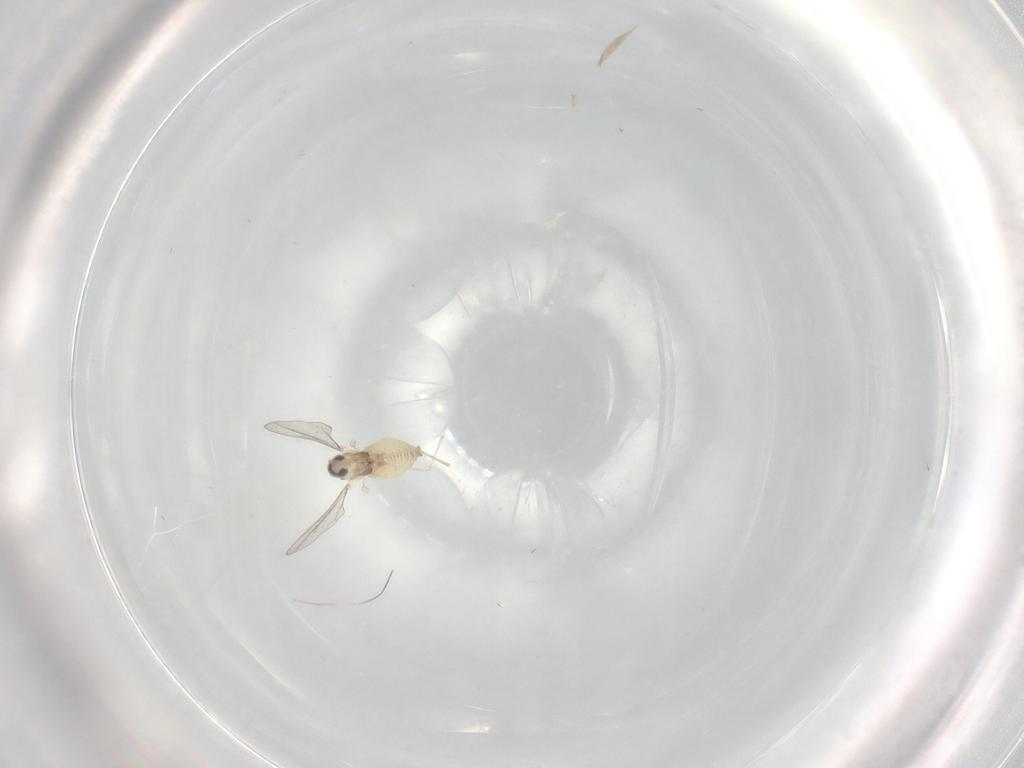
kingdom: Animalia
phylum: Arthropoda
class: Insecta
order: Diptera
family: Cecidomyiidae
